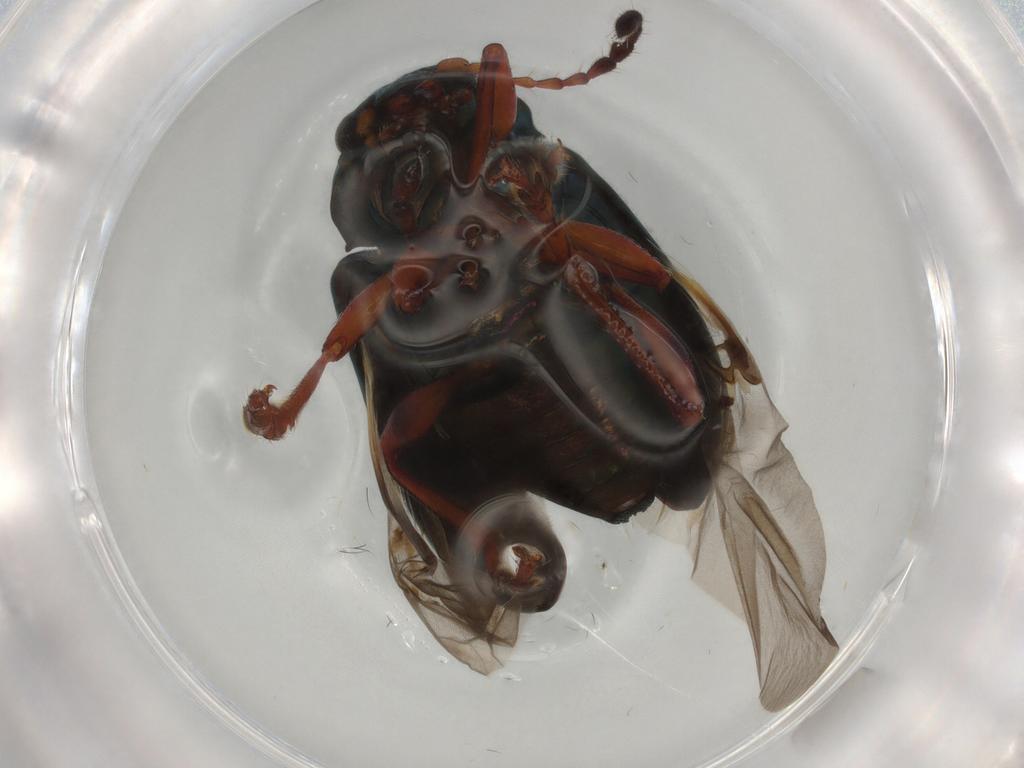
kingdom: Animalia
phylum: Arthropoda
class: Insecta
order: Coleoptera
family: Chrysomelidae
